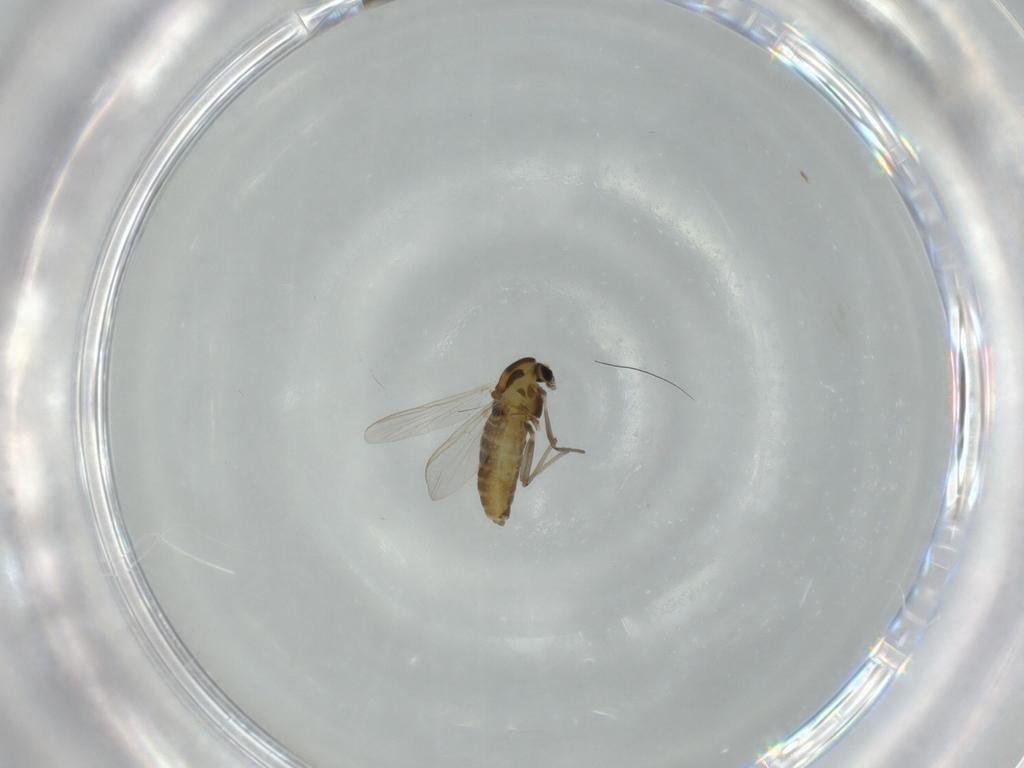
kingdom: Animalia
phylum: Arthropoda
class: Insecta
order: Diptera
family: Chironomidae
